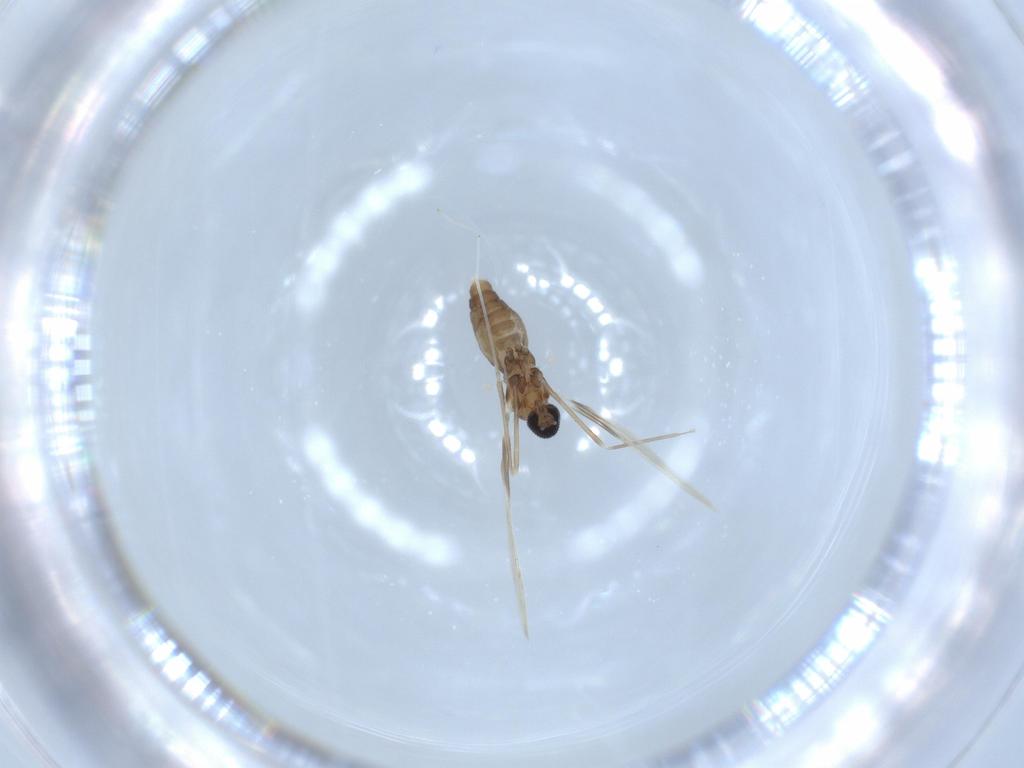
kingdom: Animalia
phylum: Arthropoda
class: Insecta
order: Diptera
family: Cecidomyiidae
